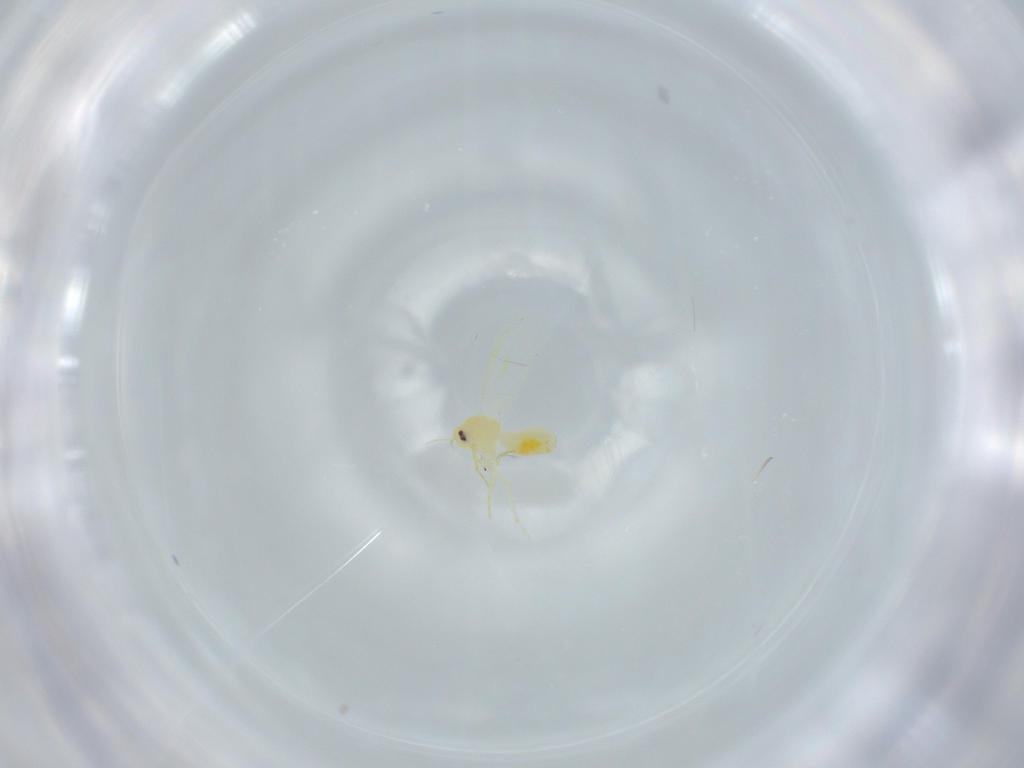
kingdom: Animalia
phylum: Arthropoda
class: Insecta
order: Hemiptera
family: Aleyrodidae
